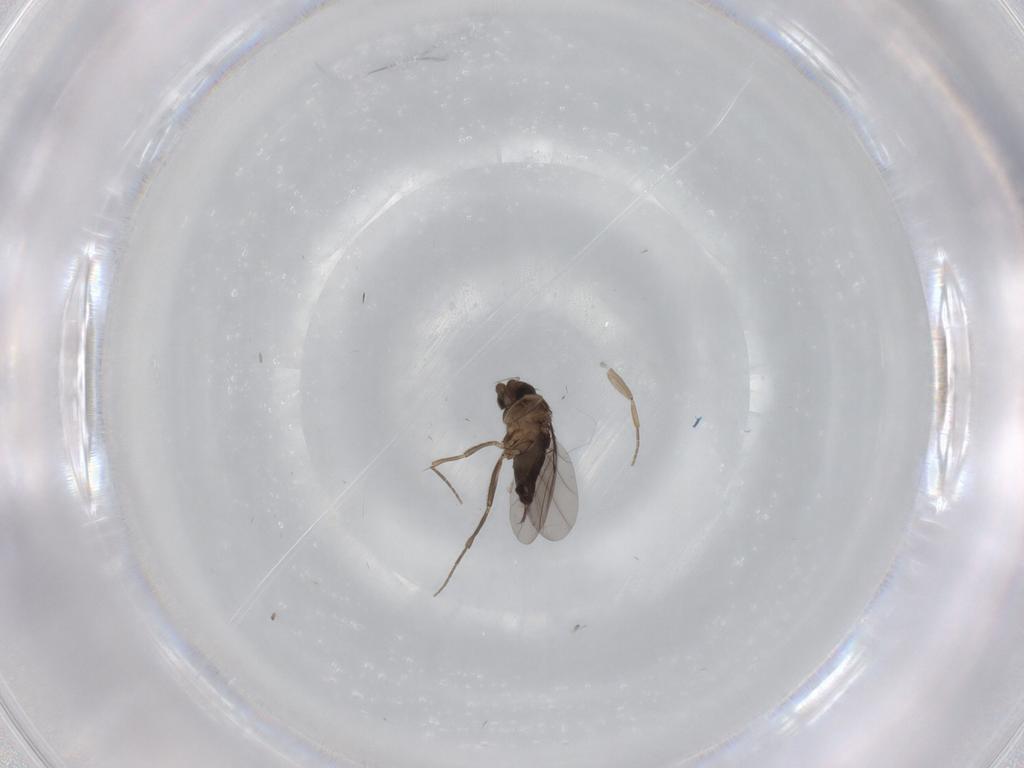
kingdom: Animalia
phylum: Arthropoda
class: Insecta
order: Diptera
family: Phoridae
